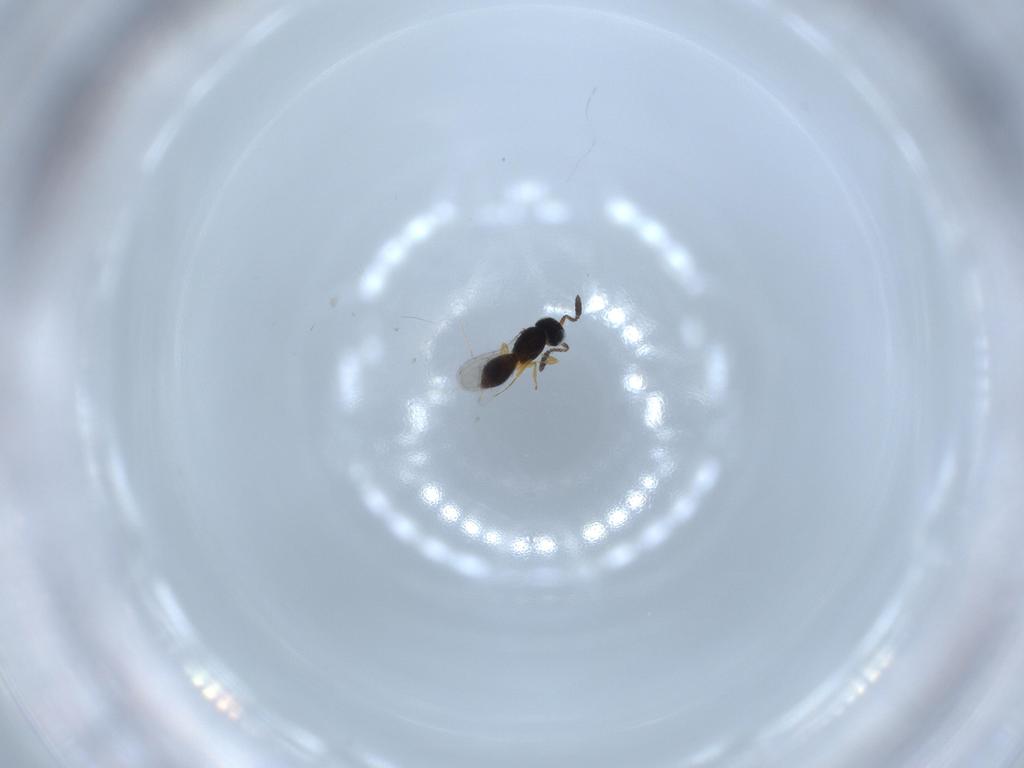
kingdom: Animalia
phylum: Arthropoda
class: Insecta
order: Hymenoptera
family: Scelionidae
